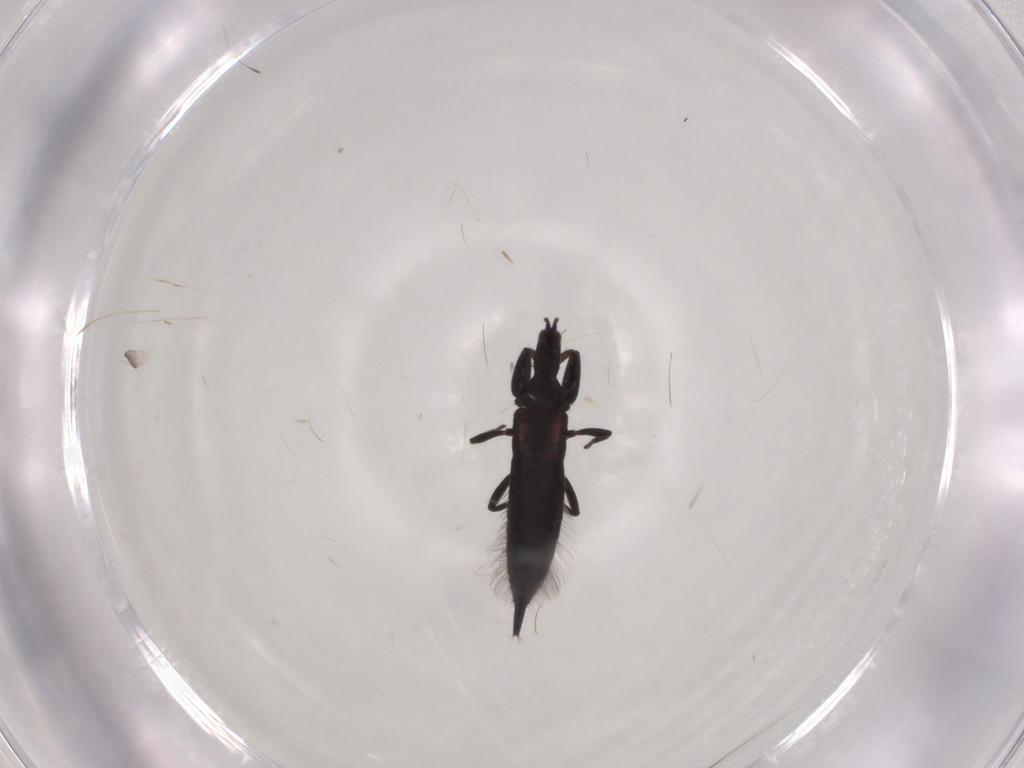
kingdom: Animalia
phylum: Arthropoda
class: Insecta
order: Thysanoptera
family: Phlaeothripidae
